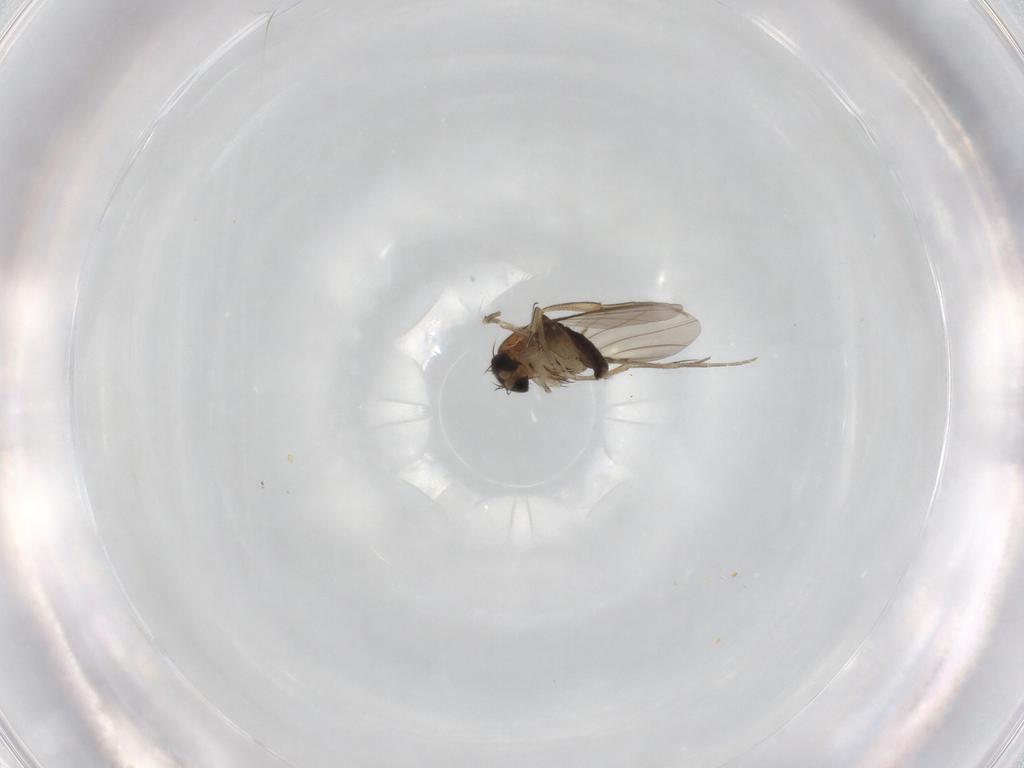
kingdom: Animalia
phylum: Arthropoda
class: Insecta
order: Diptera
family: Phoridae
